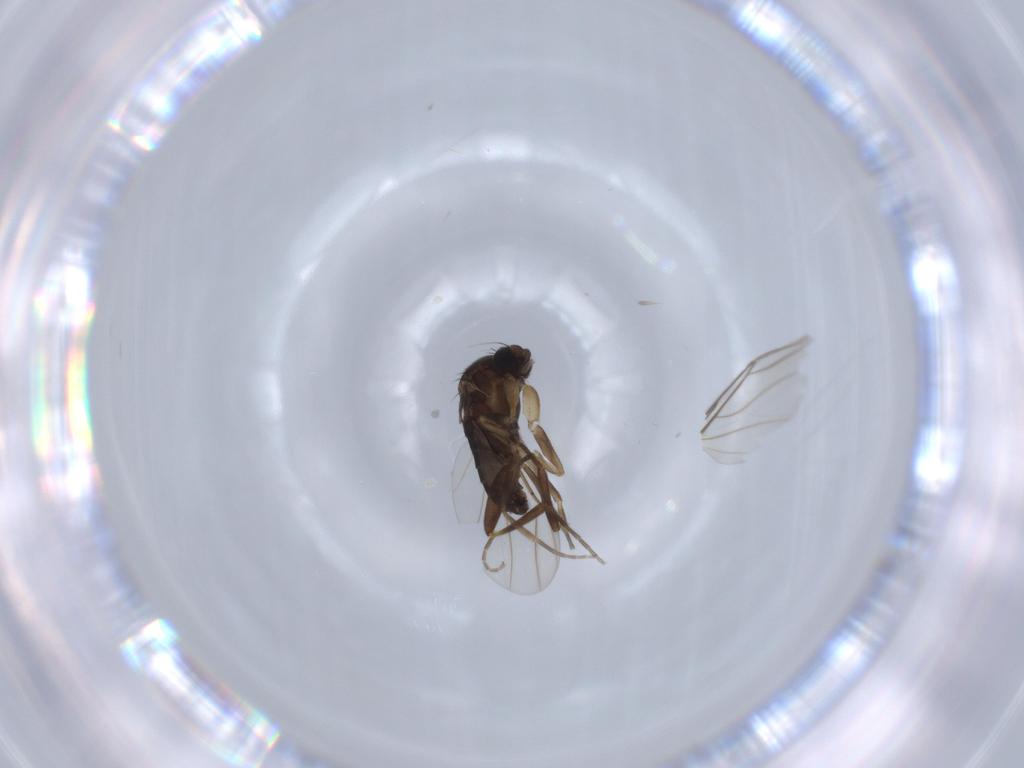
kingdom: Animalia
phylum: Arthropoda
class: Insecta
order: Diptera
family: Phoridae
